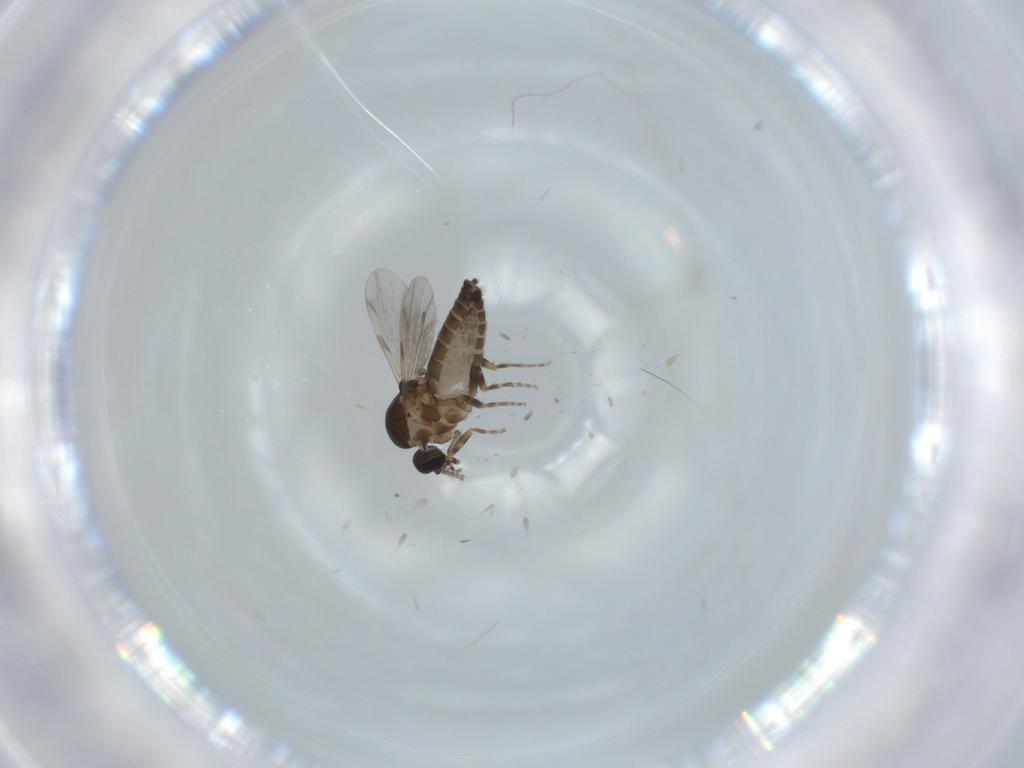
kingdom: Animalia
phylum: Arthropoda
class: Insecta
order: Diptera
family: Ceratopogonidae
